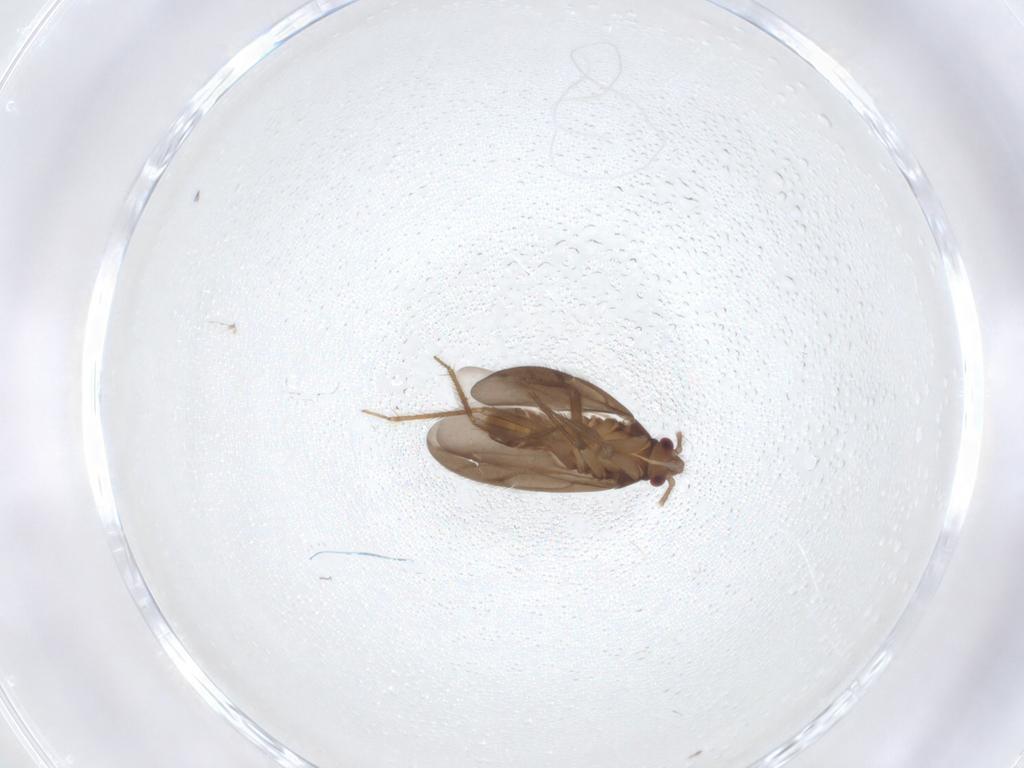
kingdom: Animalia
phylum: Arthropoda
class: Insecta
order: Hemiptera
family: Ceratocombidae
